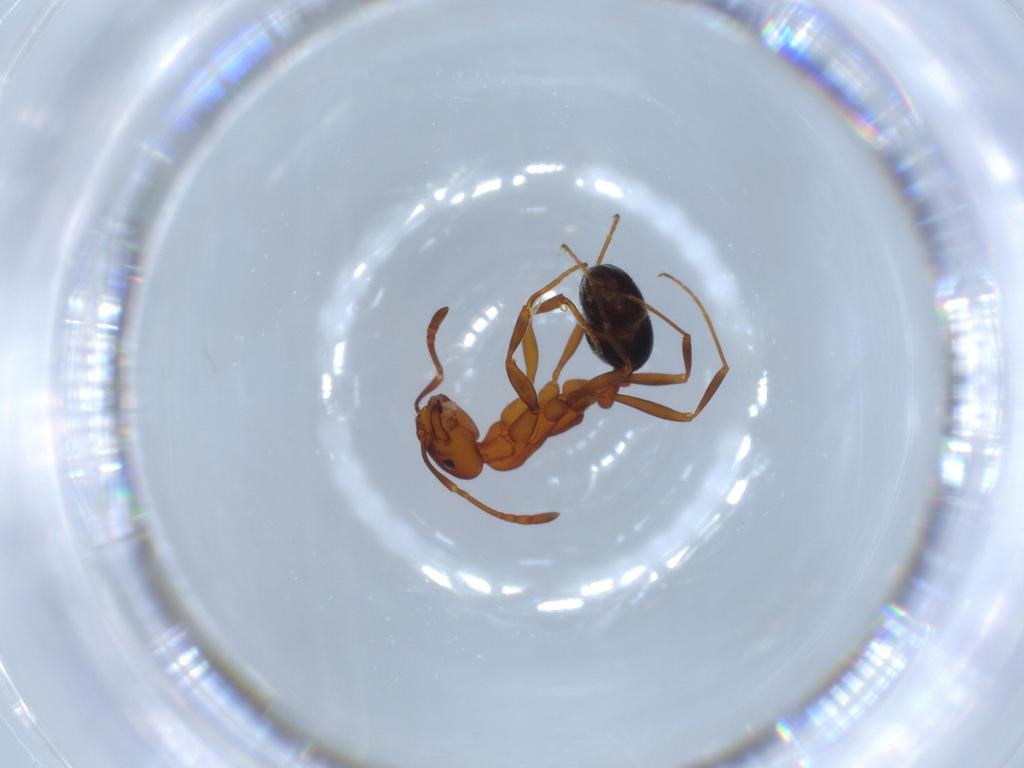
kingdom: Animalia
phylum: Arthropoda
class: Insecta
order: Hymenoptera
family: Formicidae
